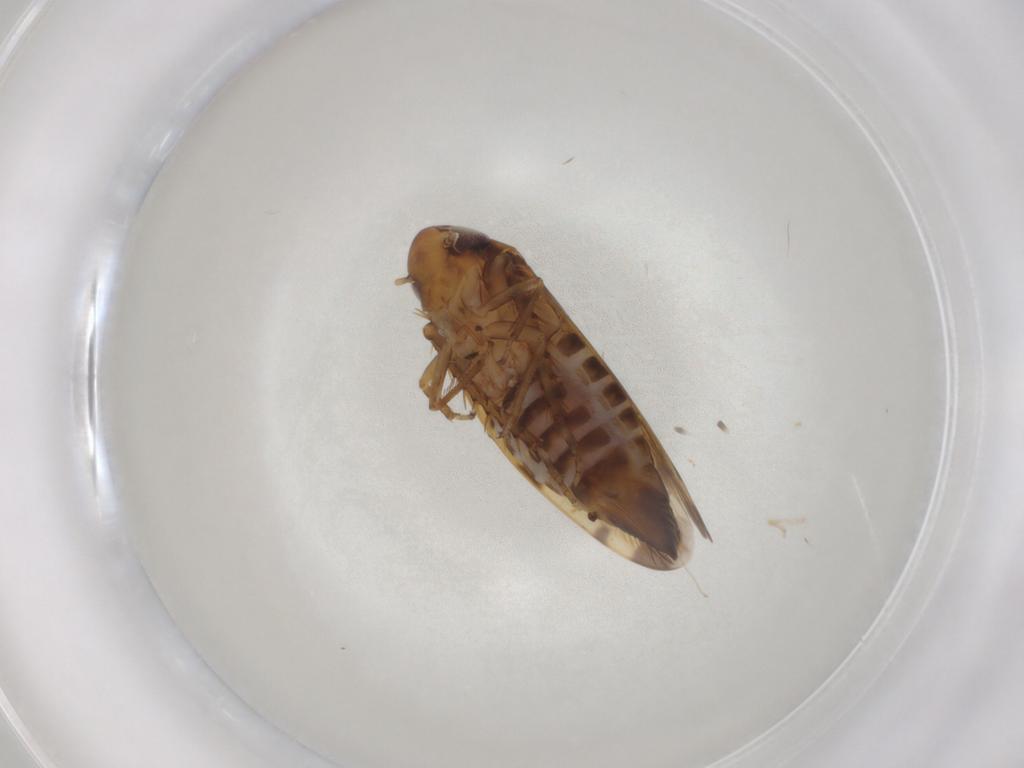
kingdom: Animalia
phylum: Arthropoda
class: Insecta
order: Hemiptera
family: Cicadellidae
